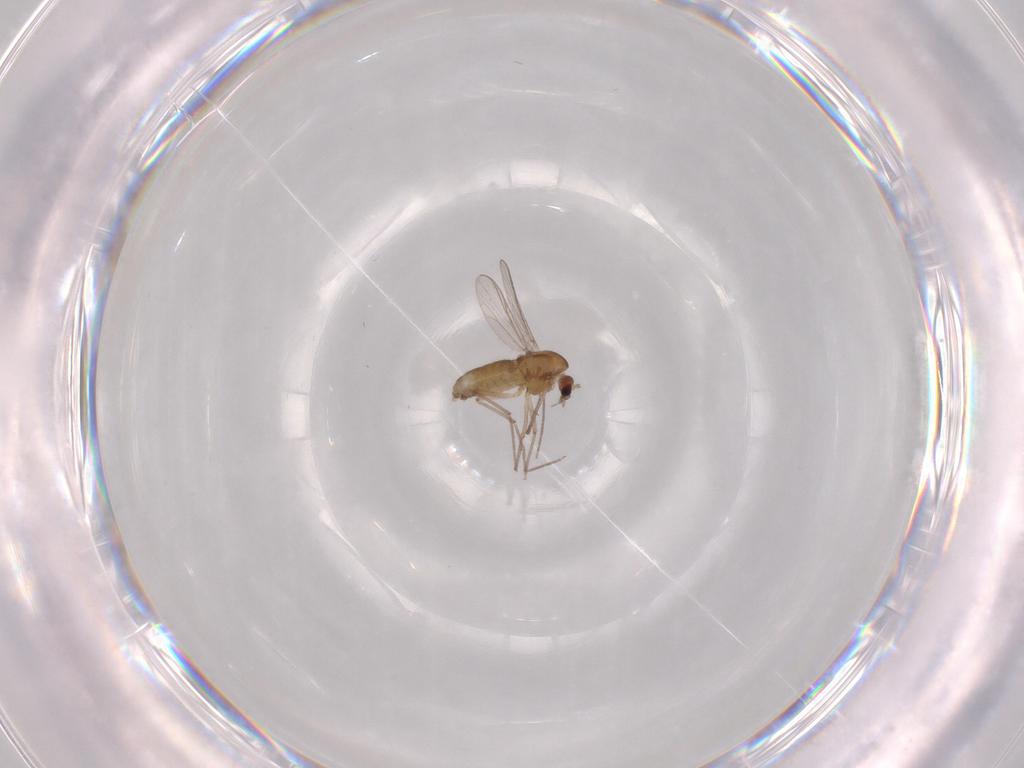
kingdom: Animalia
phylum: Arthropoda
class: Insecta
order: Diptera
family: Chironomidae
